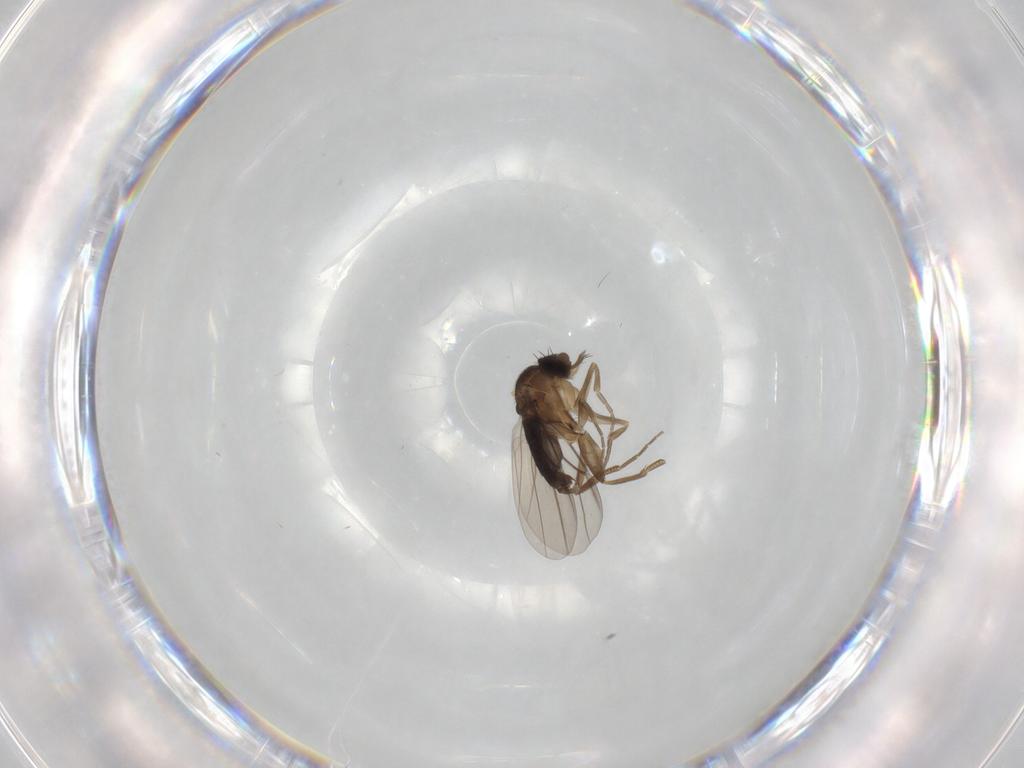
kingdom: Animalia
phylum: Arthropoda
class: Insecta
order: Diptera
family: Phoridae
